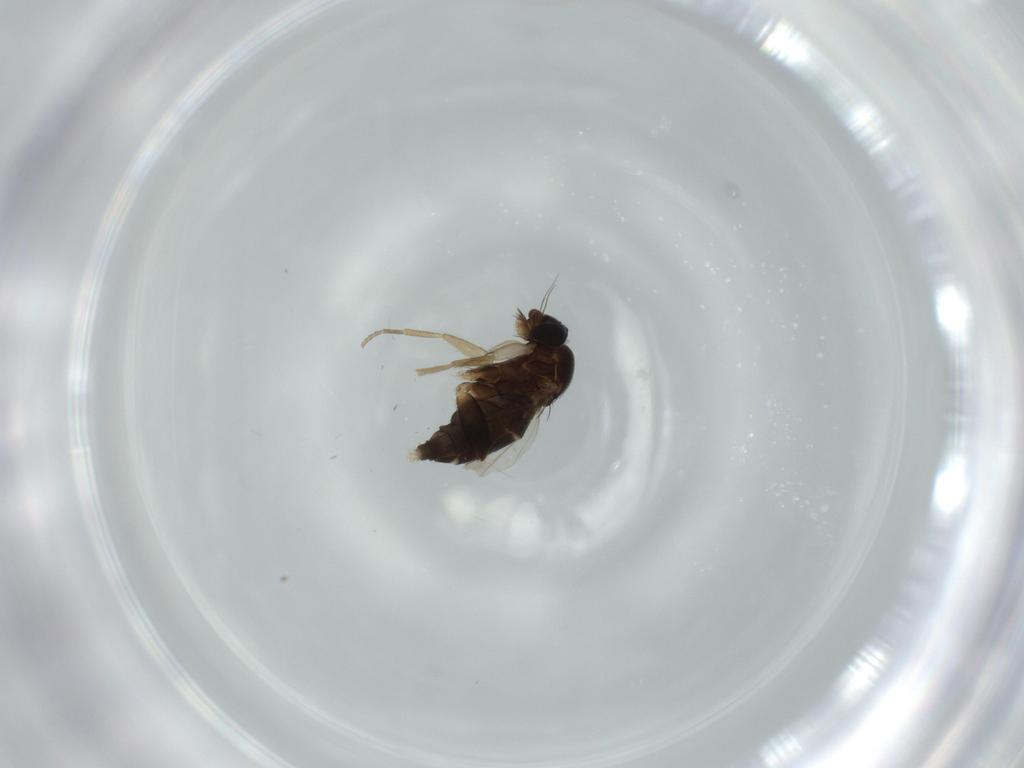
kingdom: Animalia
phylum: Arthropoda
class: Insecta
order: Diptera
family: Phoridae
